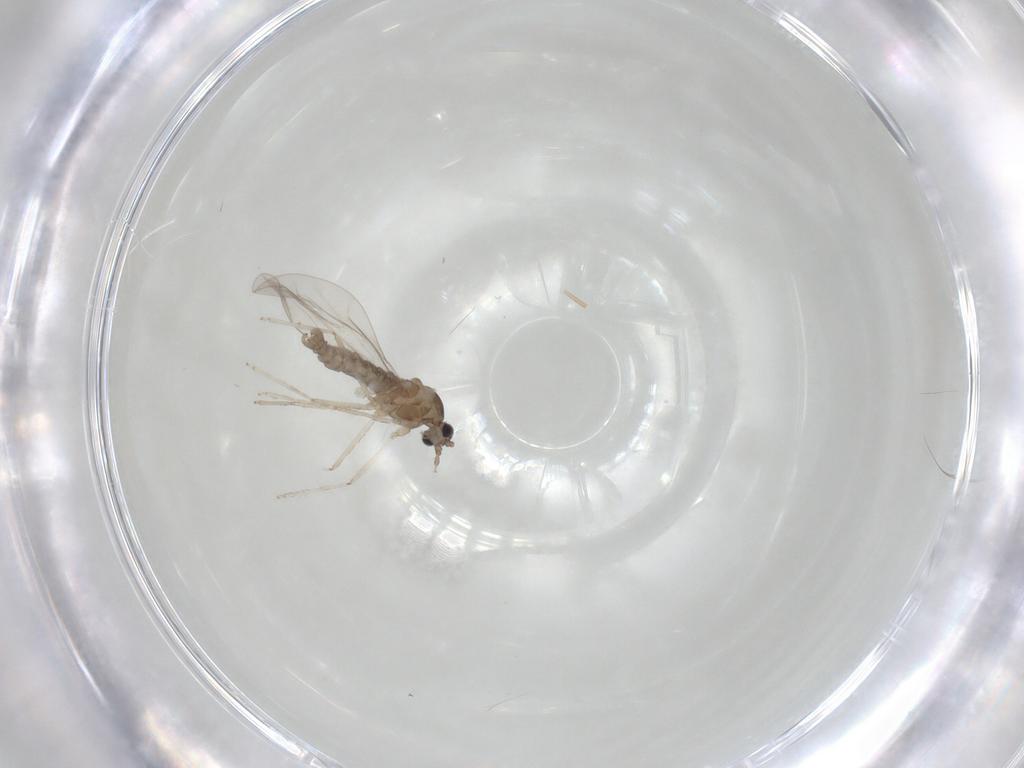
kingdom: Animalia
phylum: Arthropoda
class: Insecta
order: Diptera
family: Cecidomyiidae
